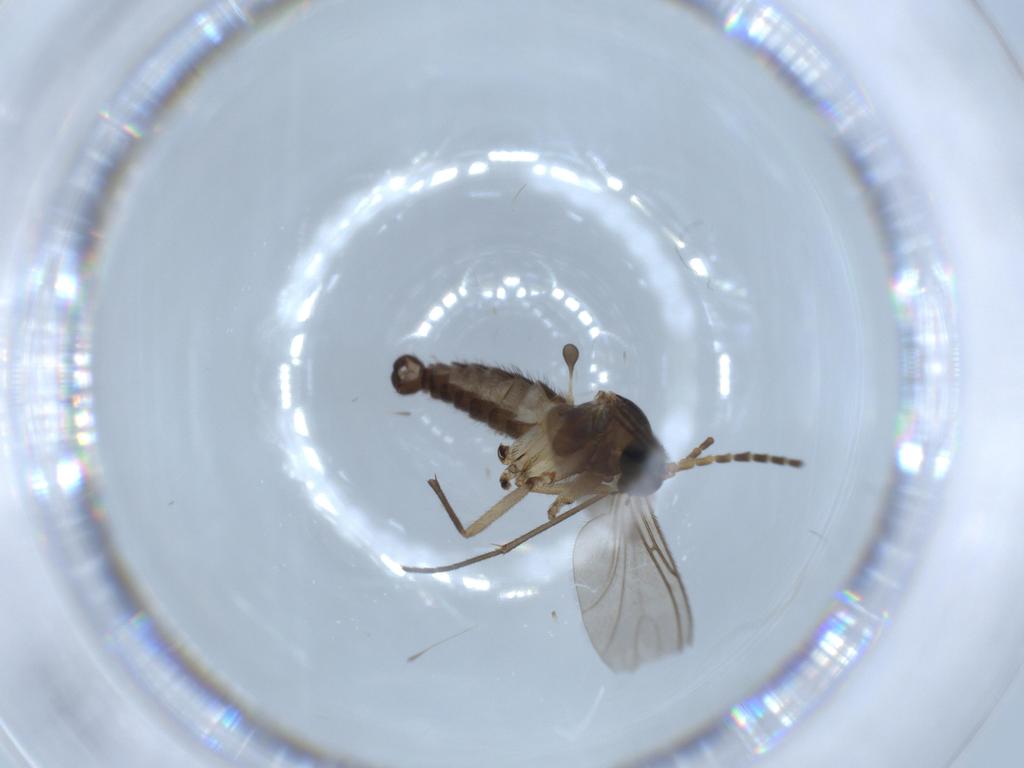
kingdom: Animalia
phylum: Arthropoda
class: Insecta
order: Diptera
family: Sciaridae
